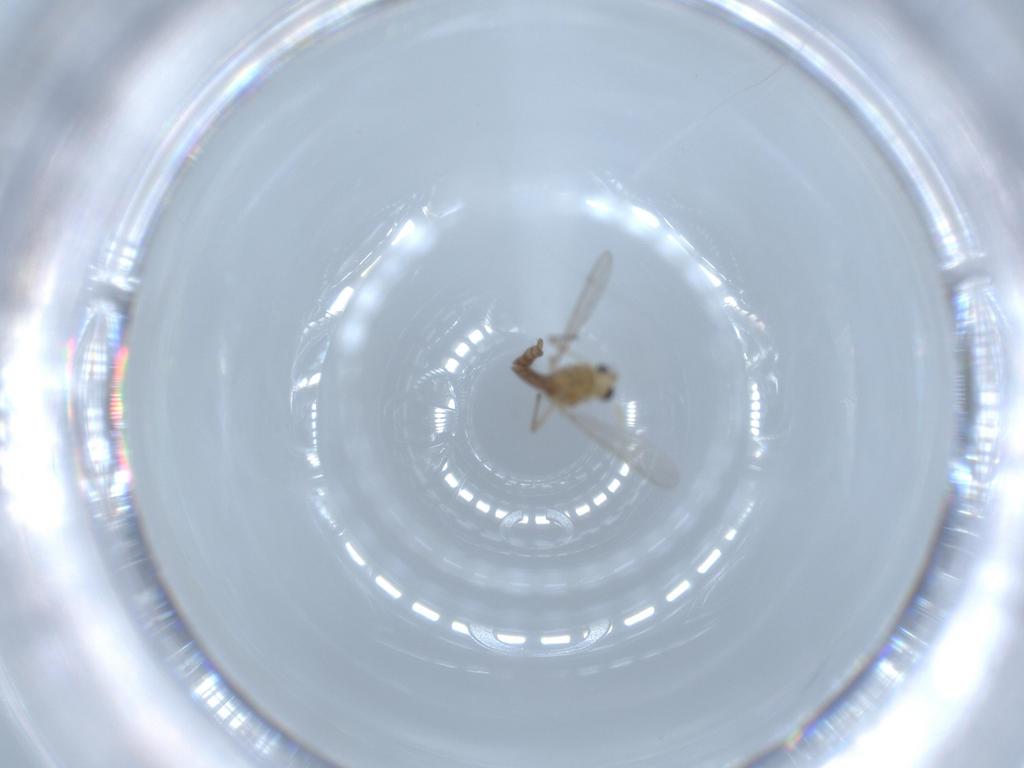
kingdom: Animalia
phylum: Arthropoda
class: Insecta
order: Diptera
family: Chironomidae
